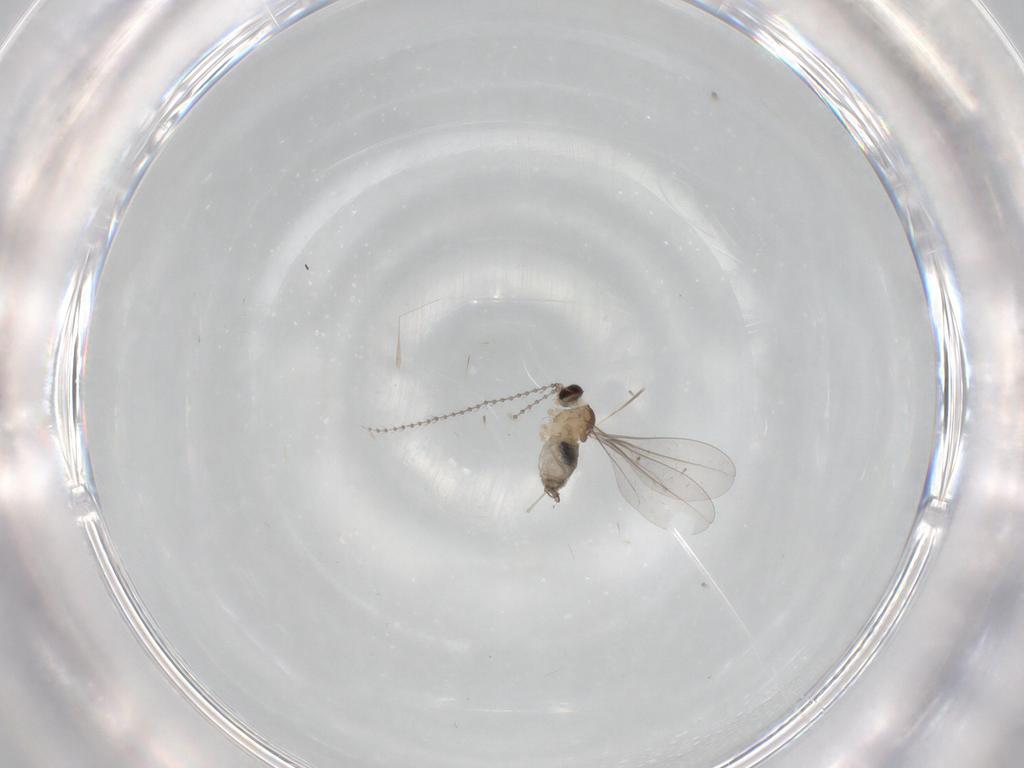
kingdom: Animalia
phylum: Arthropoda
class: Insecta
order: Diptera
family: Cecidomyiidae
